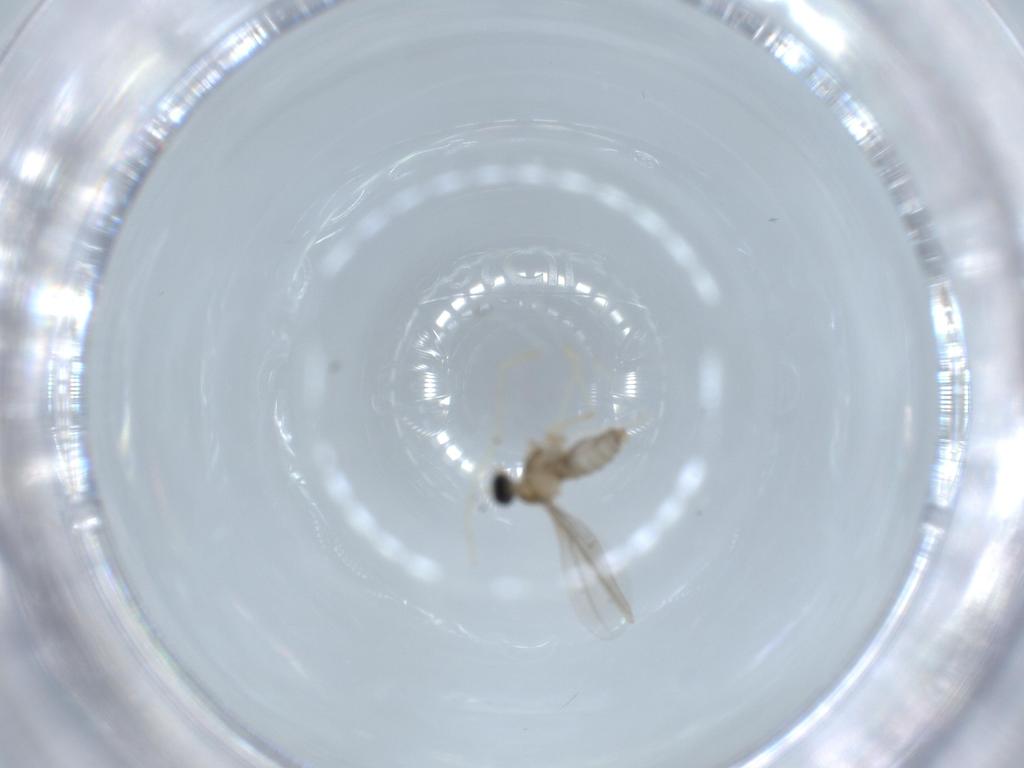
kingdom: Animalia
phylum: Arthropoda
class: Insecta
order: Diptera
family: Cecidomyiidae
